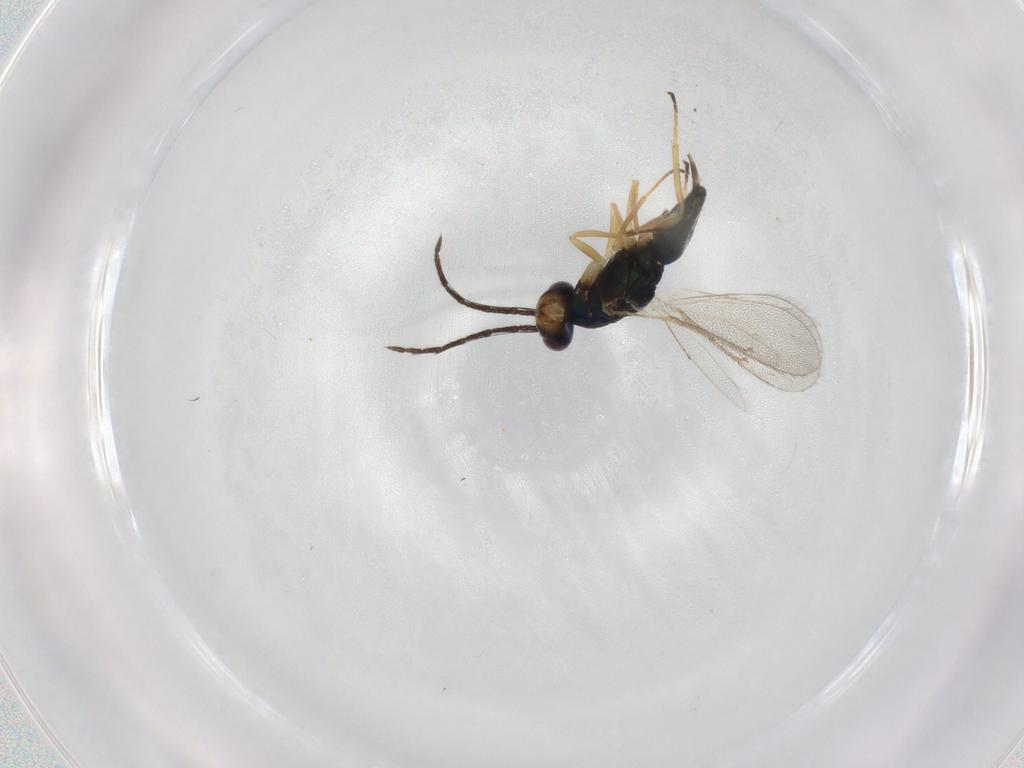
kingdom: Animalia
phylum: Arthropoda
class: Insecta
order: Hymenoptera
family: Eulophidae
